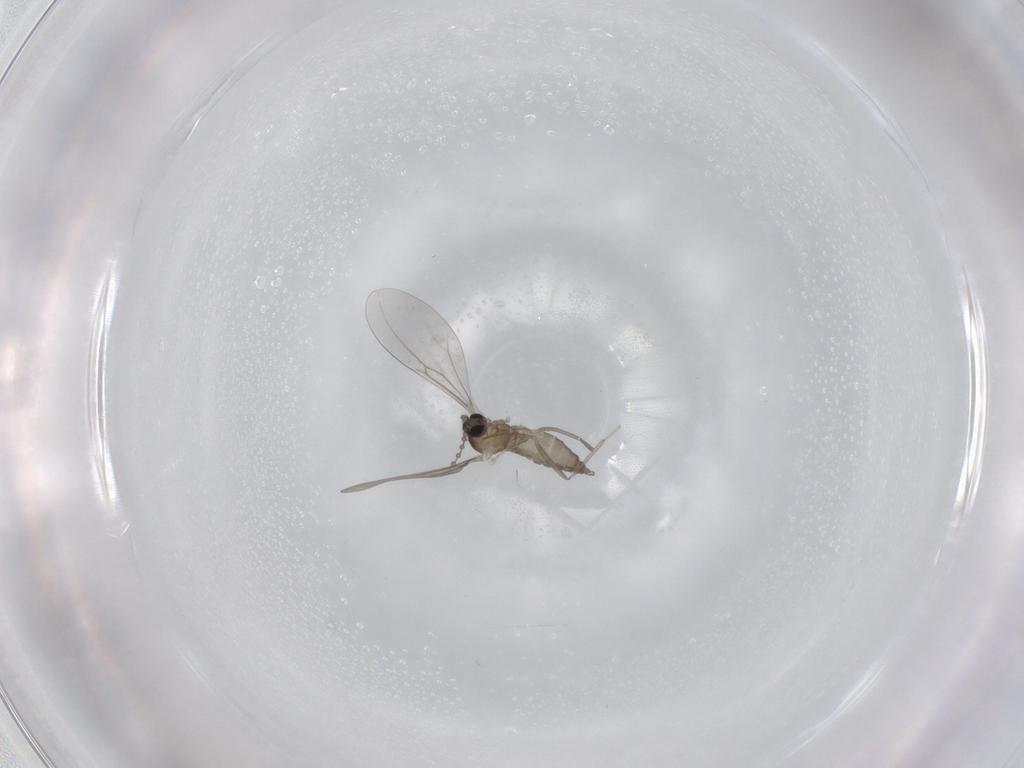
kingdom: Animalia
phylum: Arthropoda
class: Insecta
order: Diptera
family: Cecidomyiidae
